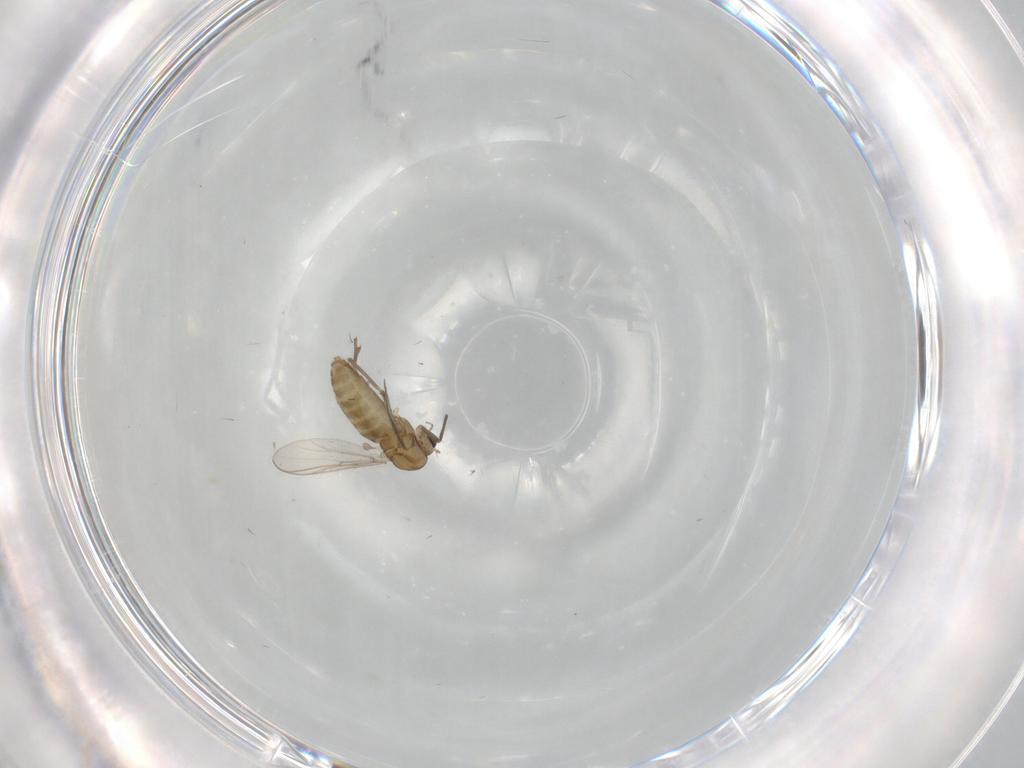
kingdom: Animalia
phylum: Arthropoda
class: Insecta
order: Diptera
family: Chironomidae
